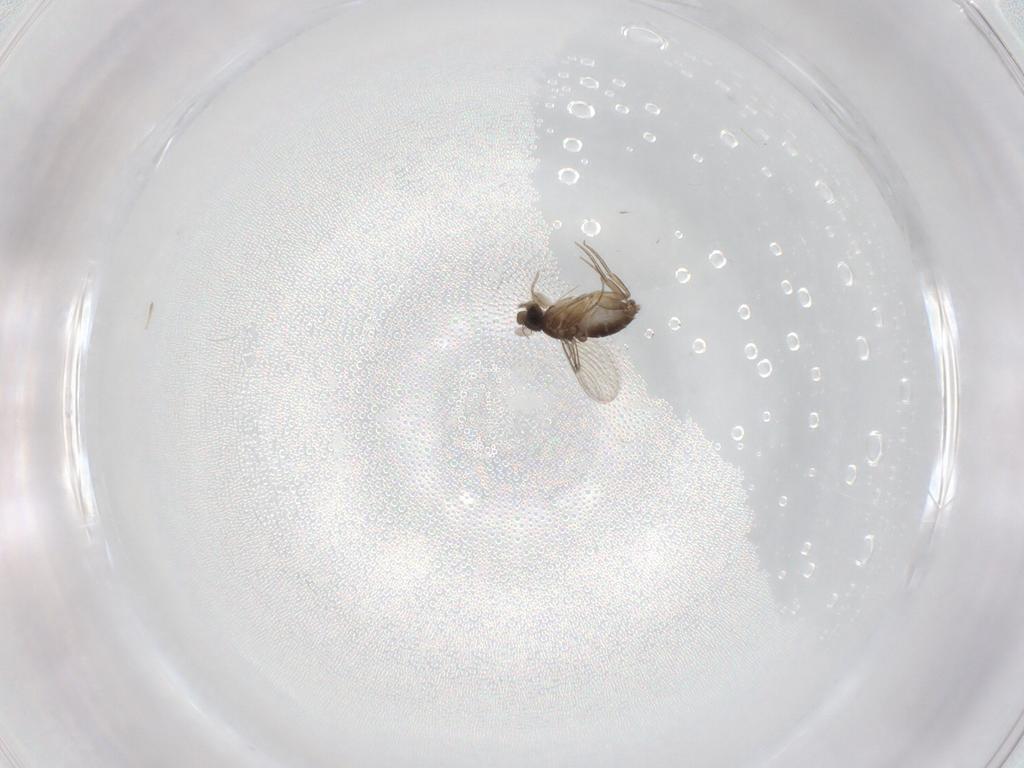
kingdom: Animalia
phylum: Arthropoda
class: Insecta
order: Diptera
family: Phoridae
